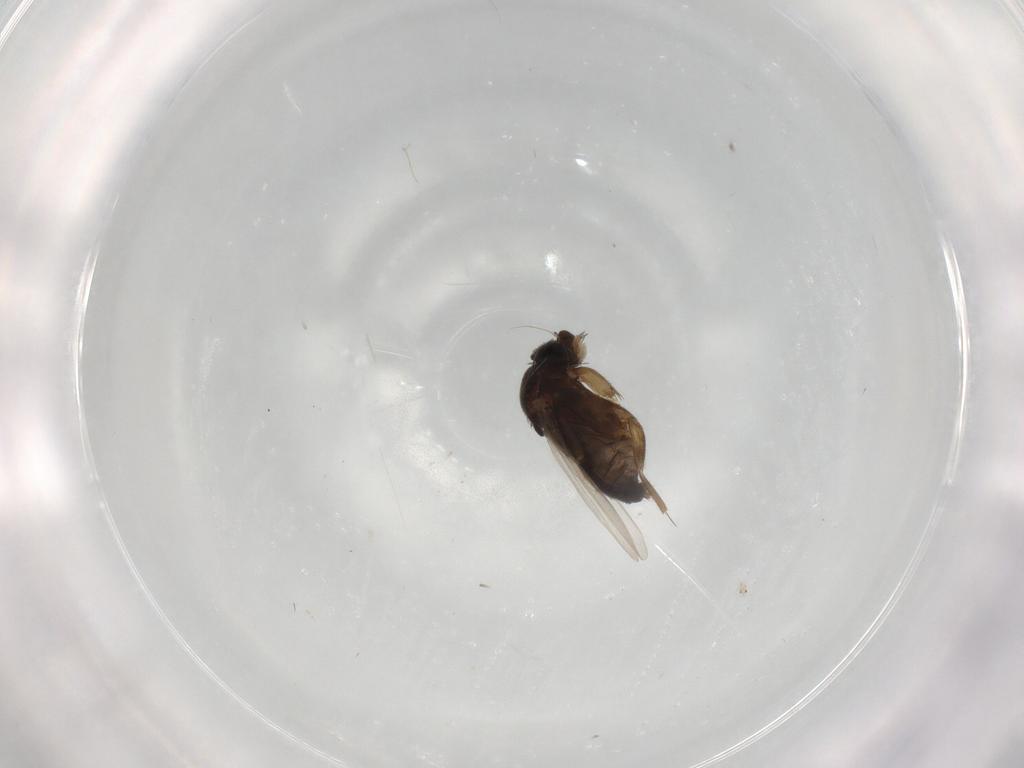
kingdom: Animalia
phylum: Arthropoda
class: Insecta
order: Diptera
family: Phoridae
